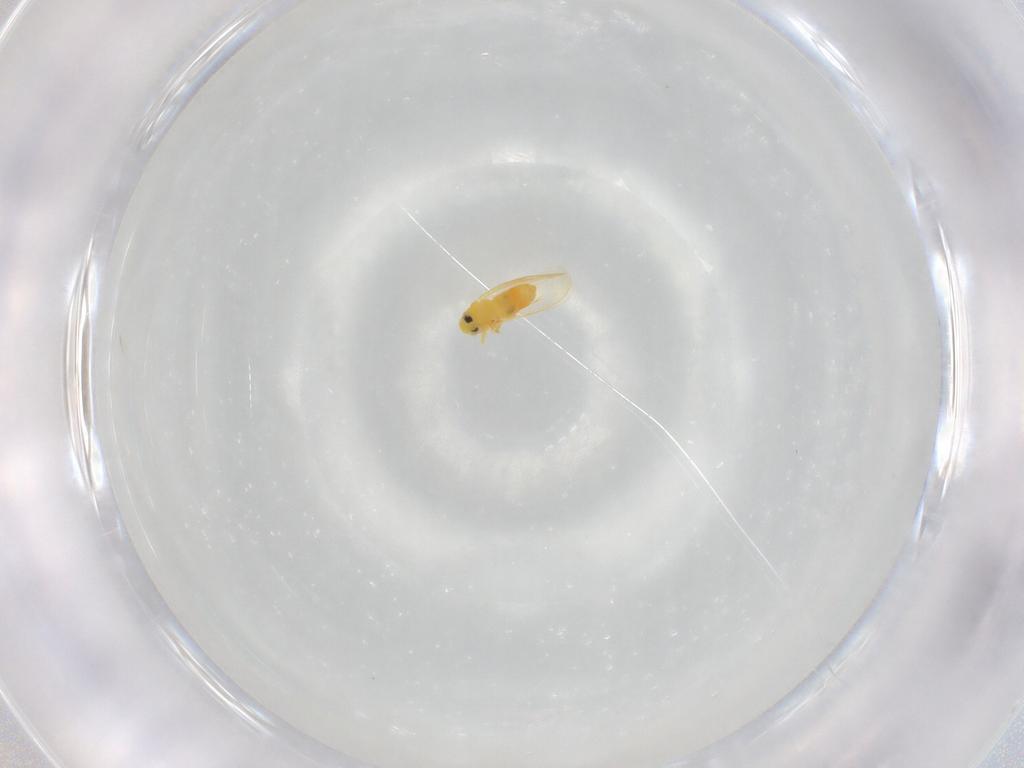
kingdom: Animalia
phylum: Arthropoda
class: Insecta
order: Hemiptera
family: Aleyrodidae
